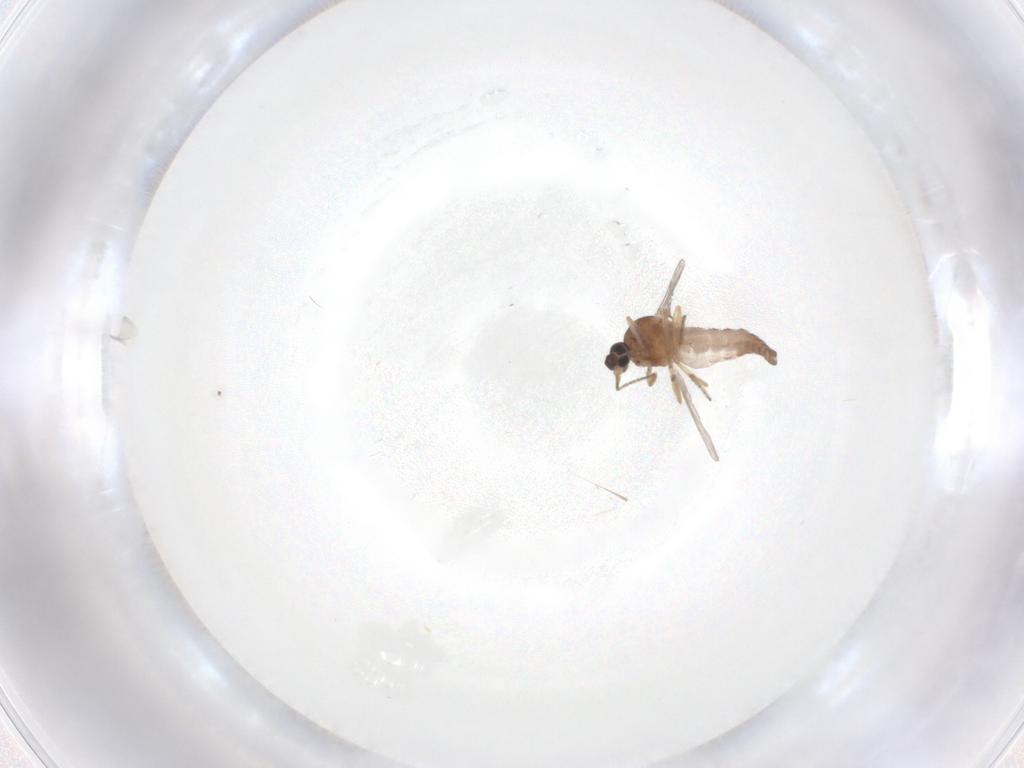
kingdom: Animalia
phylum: Arthropoda
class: Insecta
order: Diptera
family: Ceratopogonidae
